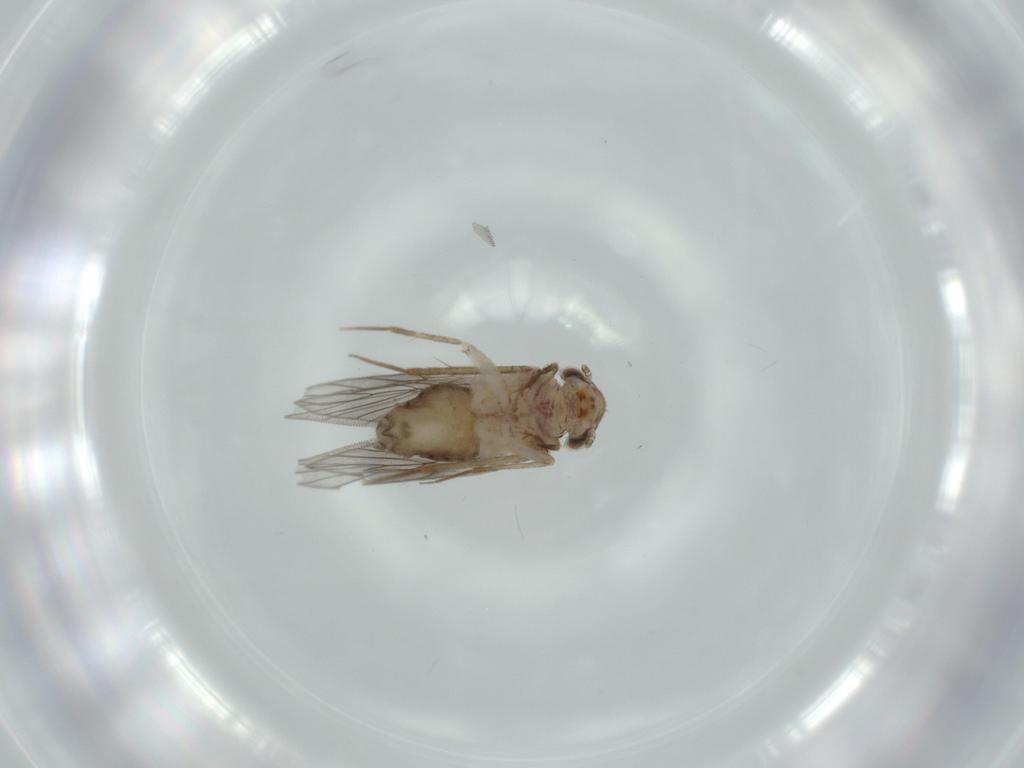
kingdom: Animalia
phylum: Arthropoda
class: Insecta
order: Psocodea
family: Lepidopsocidae
